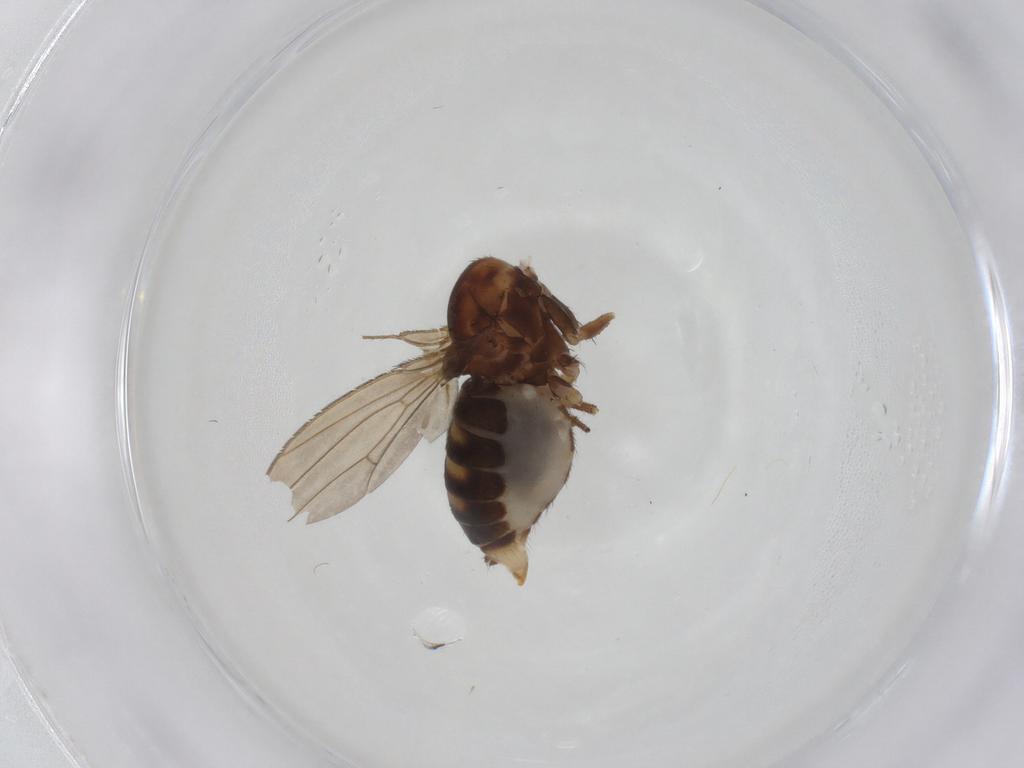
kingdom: Animalia
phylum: Arthropoda
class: Insecta
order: Diptera
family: Drosophilidae
